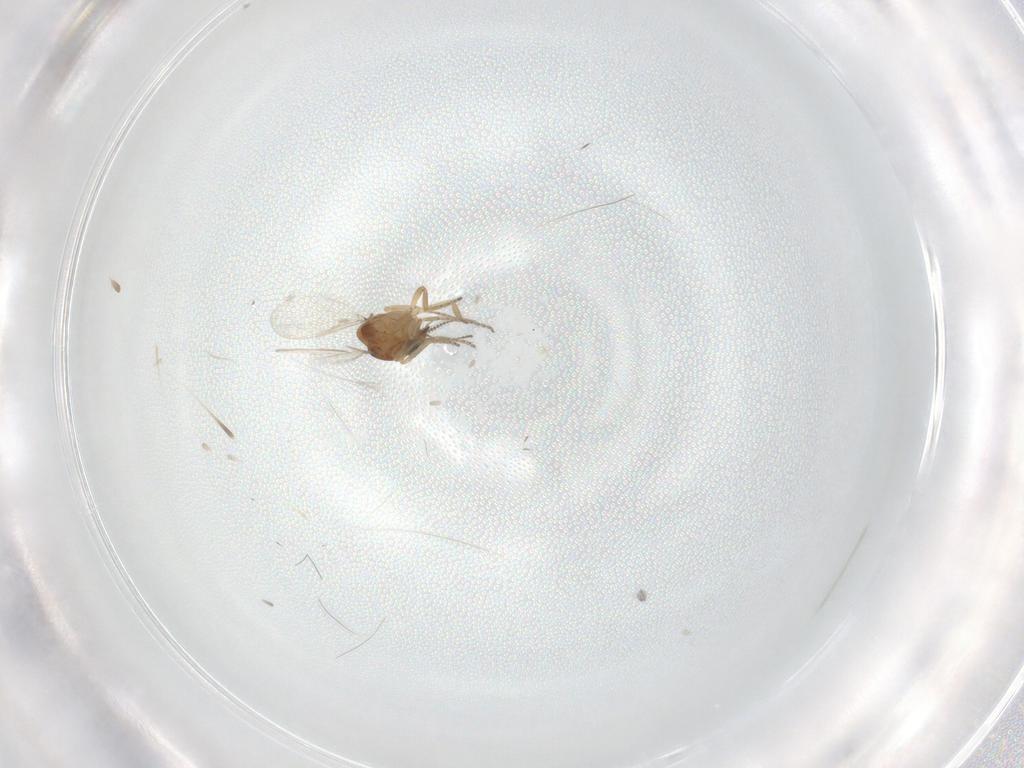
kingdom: Animalia
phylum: Arthropoda
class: Insecta
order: Diptera
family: Ceratopogonidae
